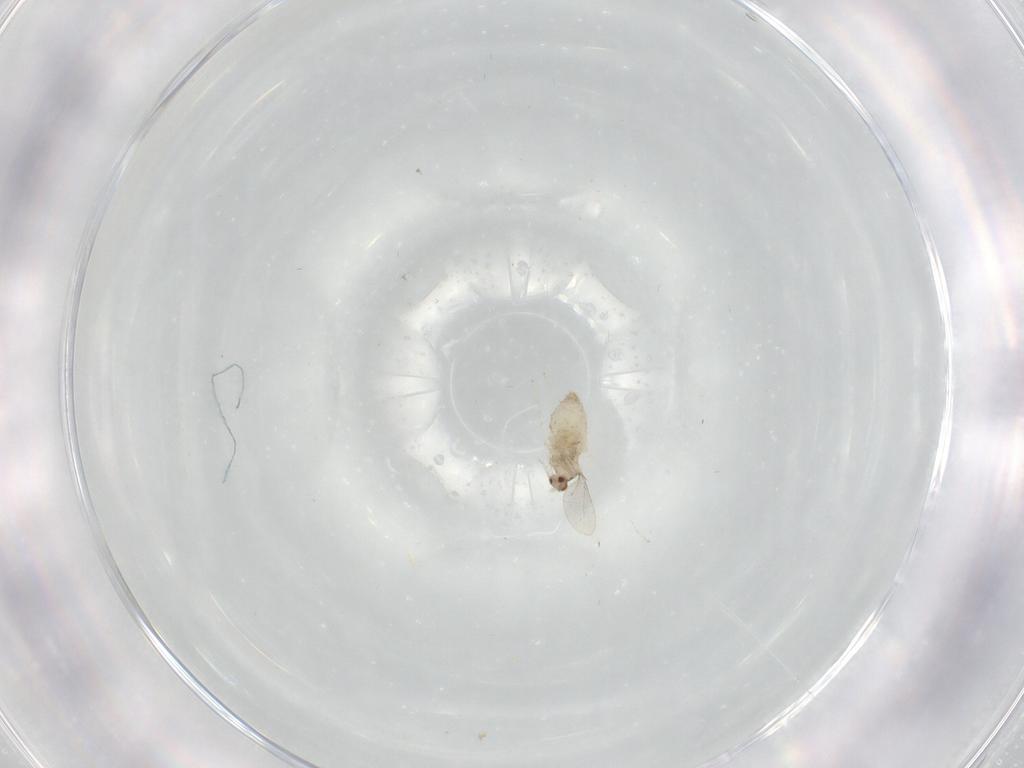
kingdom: Animalia
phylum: Arthropoda
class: Insecta
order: Diptera
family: Cecidomyiidae
